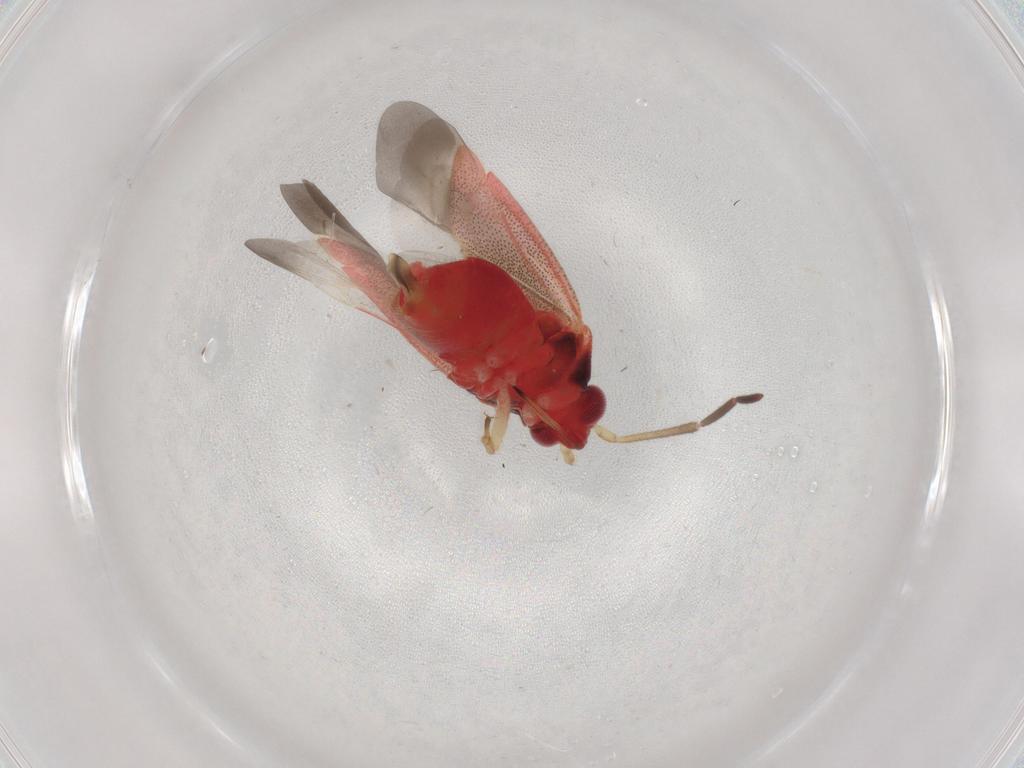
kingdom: Animalia
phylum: Arthropoda
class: Insecta
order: Hemiptera
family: Miridae
